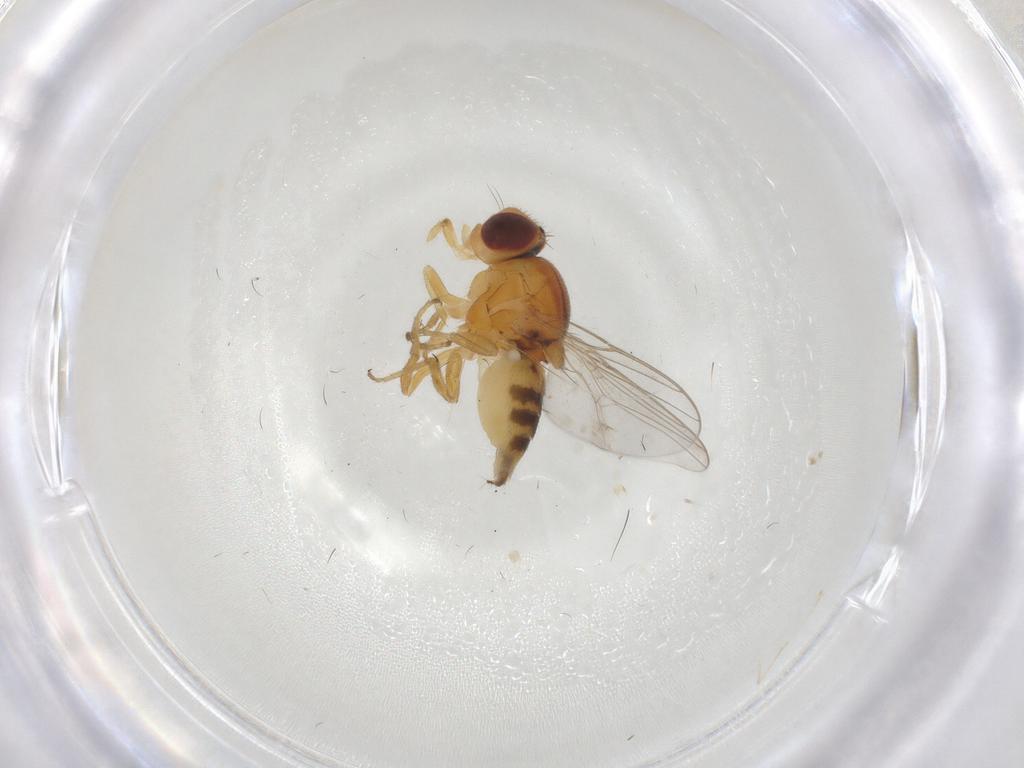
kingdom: Animalia
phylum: Arthropoda
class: Insecta
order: Diptera
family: Chloropidae
